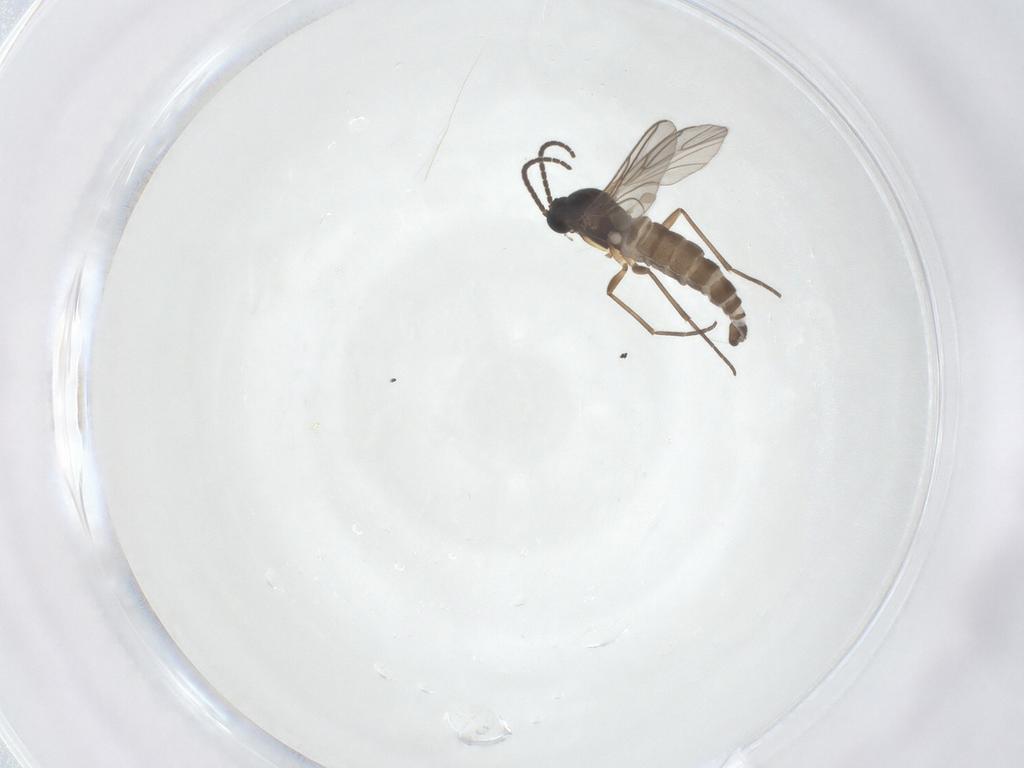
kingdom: Animalia
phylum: Arthropoda
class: Insecta
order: Diptera
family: Sciaridae
